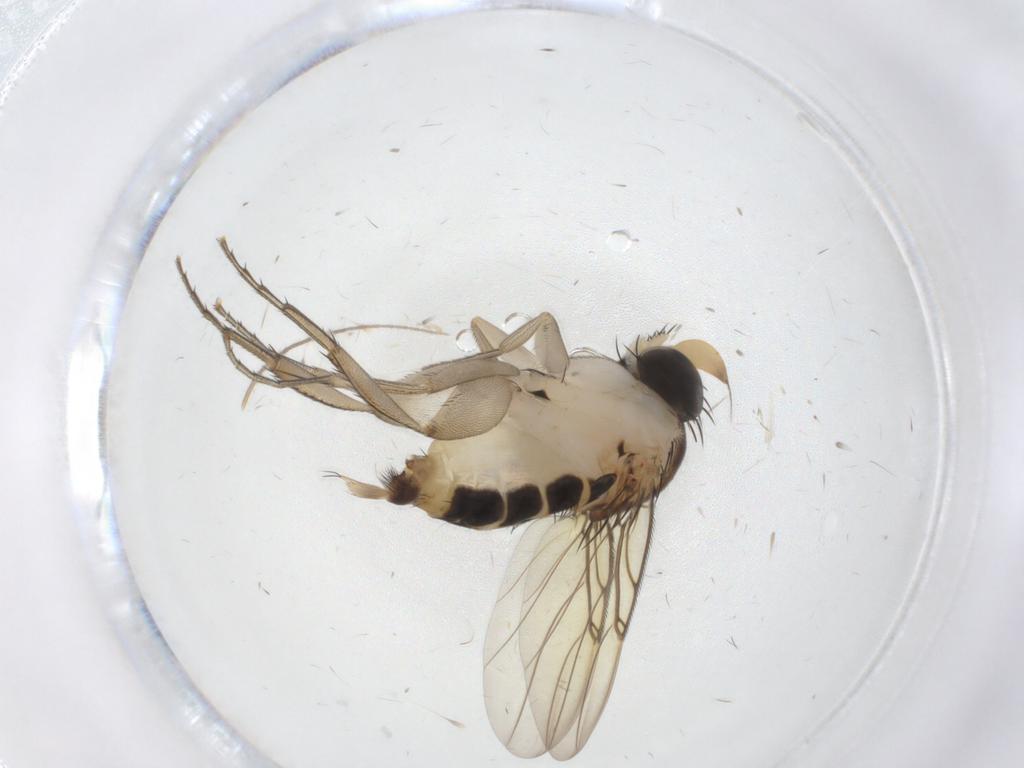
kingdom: Animalia
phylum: Arthropoda
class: Insecta
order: Diptera
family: Phoridae
